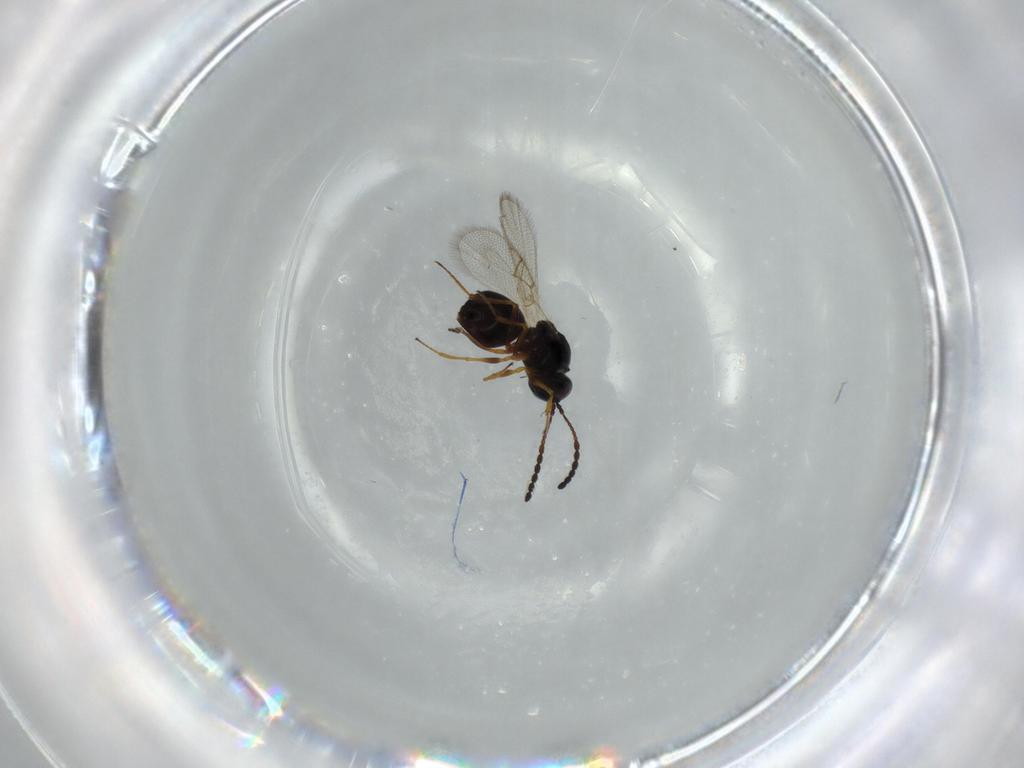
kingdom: Animalia
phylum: Arthropoda
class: Insecta
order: Hymenoptera
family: Figitidae
